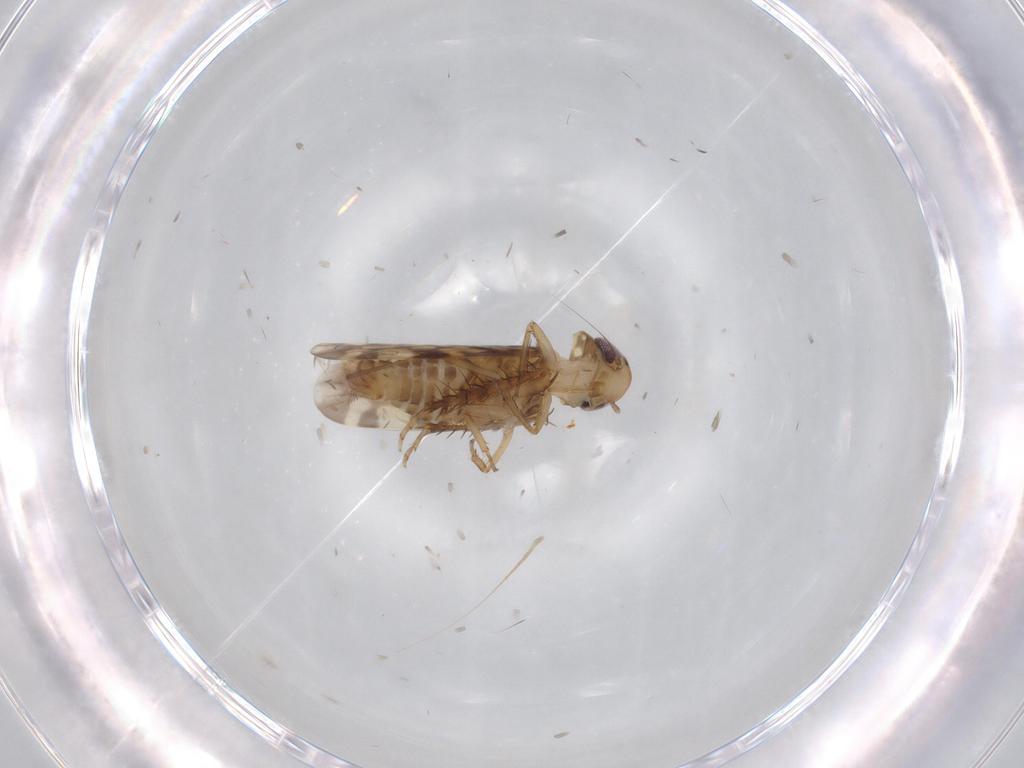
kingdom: Animalia
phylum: Arthropoda
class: Insecta
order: Hemiptera
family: Cicadellidae
